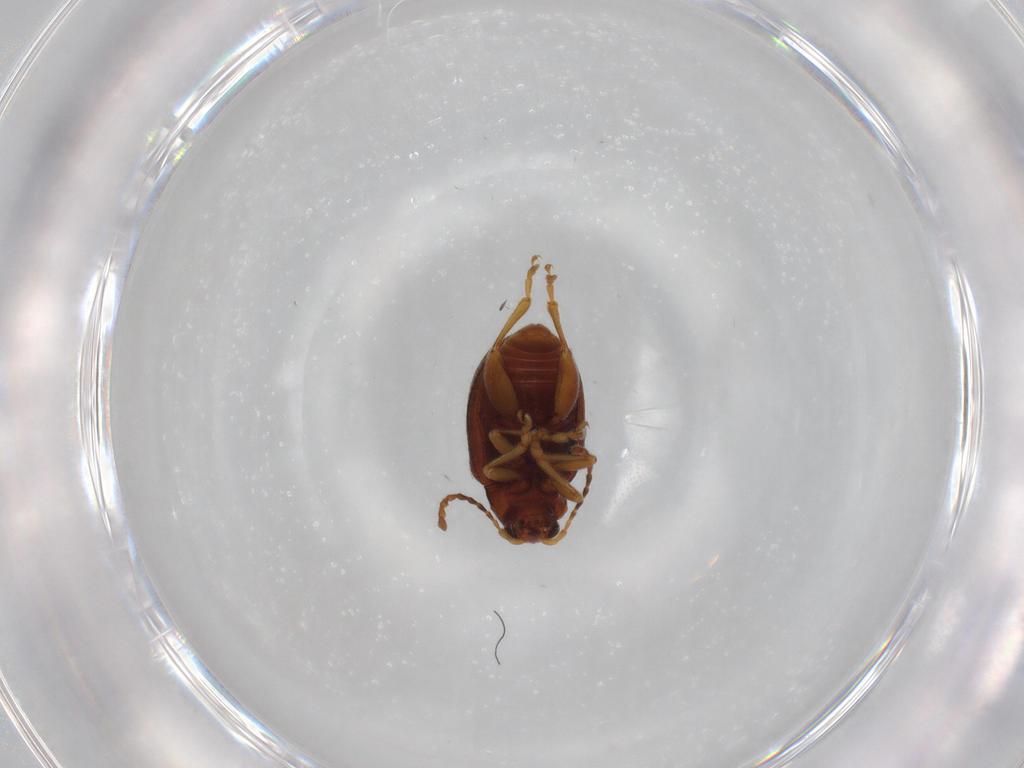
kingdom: Animalia
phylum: Arthropoda
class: Insecta
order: Coleoptera
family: Chrysomelidae
